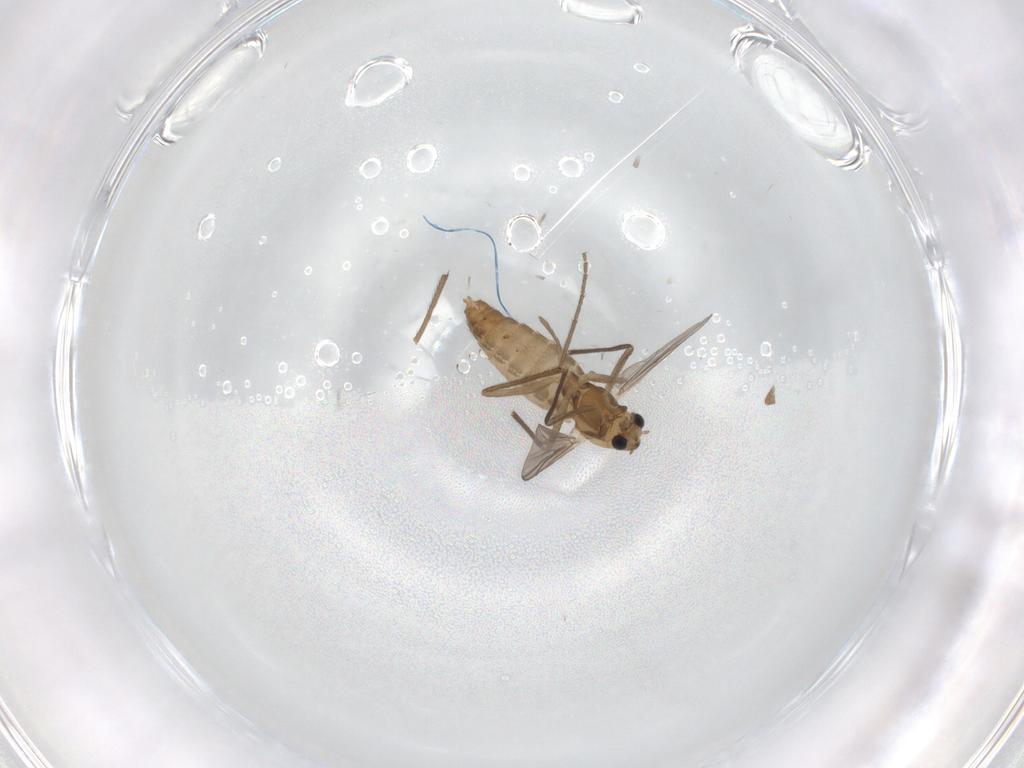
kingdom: Animalia
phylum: Arthropoda
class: Insecta
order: Diptera
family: Chironomidae
